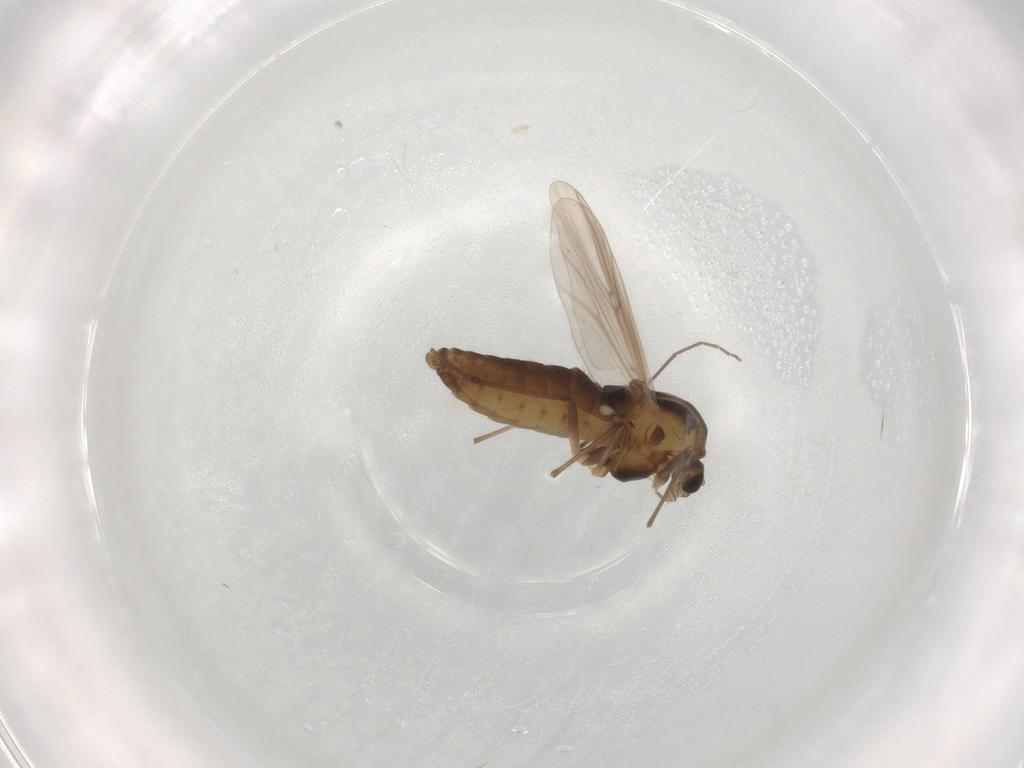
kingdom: Animalia
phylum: Arthropoda
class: Insecta
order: Diptera
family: Chironomidae
